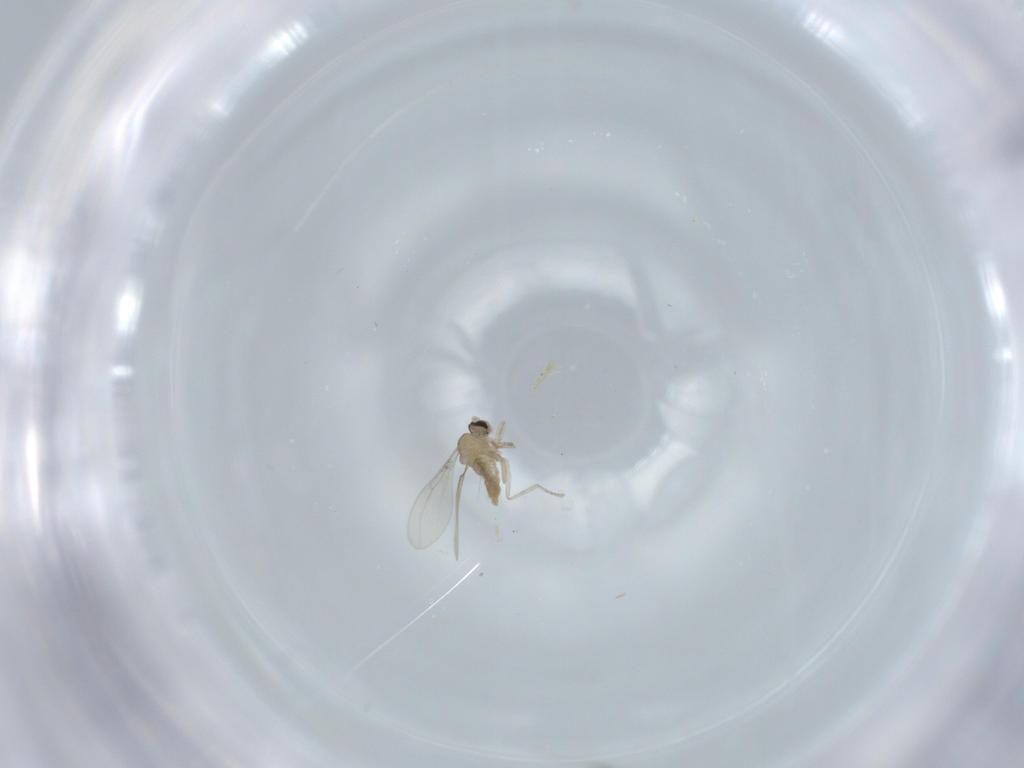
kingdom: Animalia
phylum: Arthropoda
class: Insecta
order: Diptera
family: Cecidomyiidae
